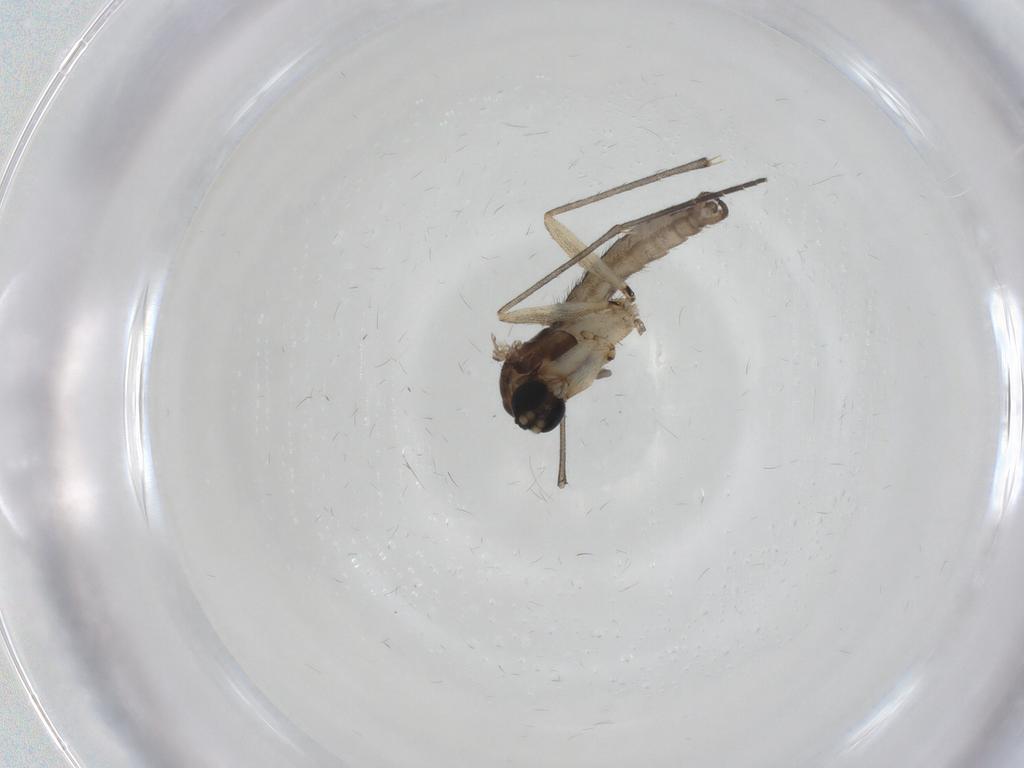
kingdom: Animalia
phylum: Arthropoda
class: Insecta
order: Diptera
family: Sciaridae
